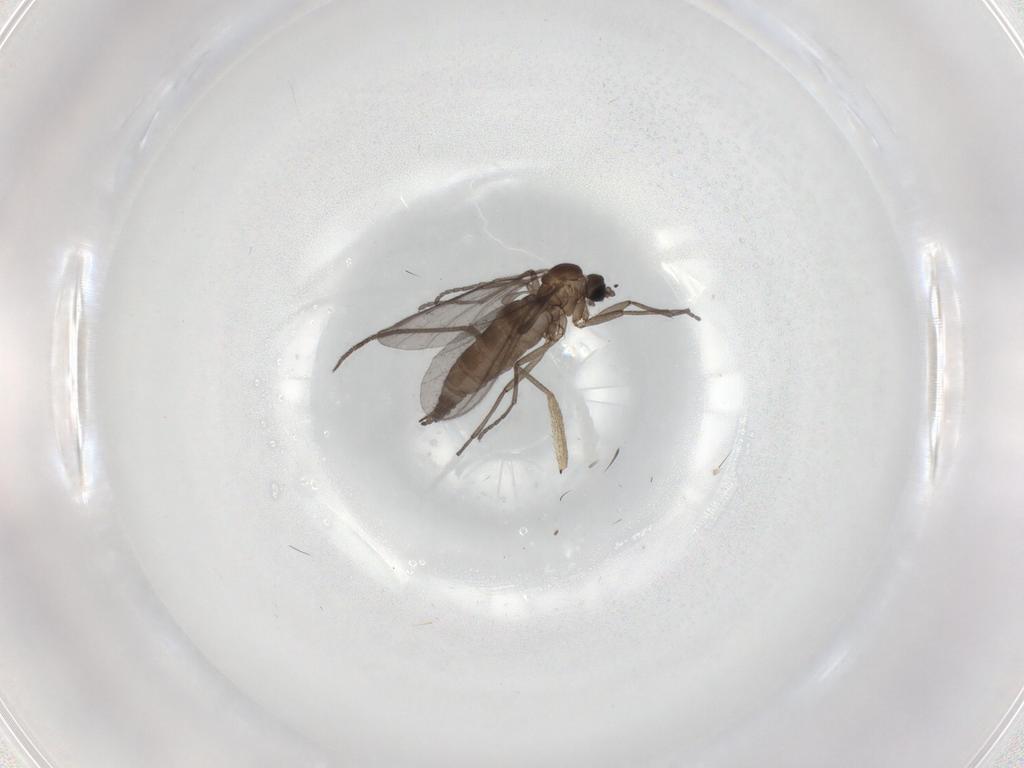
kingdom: Animalia
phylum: Arthropoda
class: Insecta
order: Diptera
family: Sciaridae
